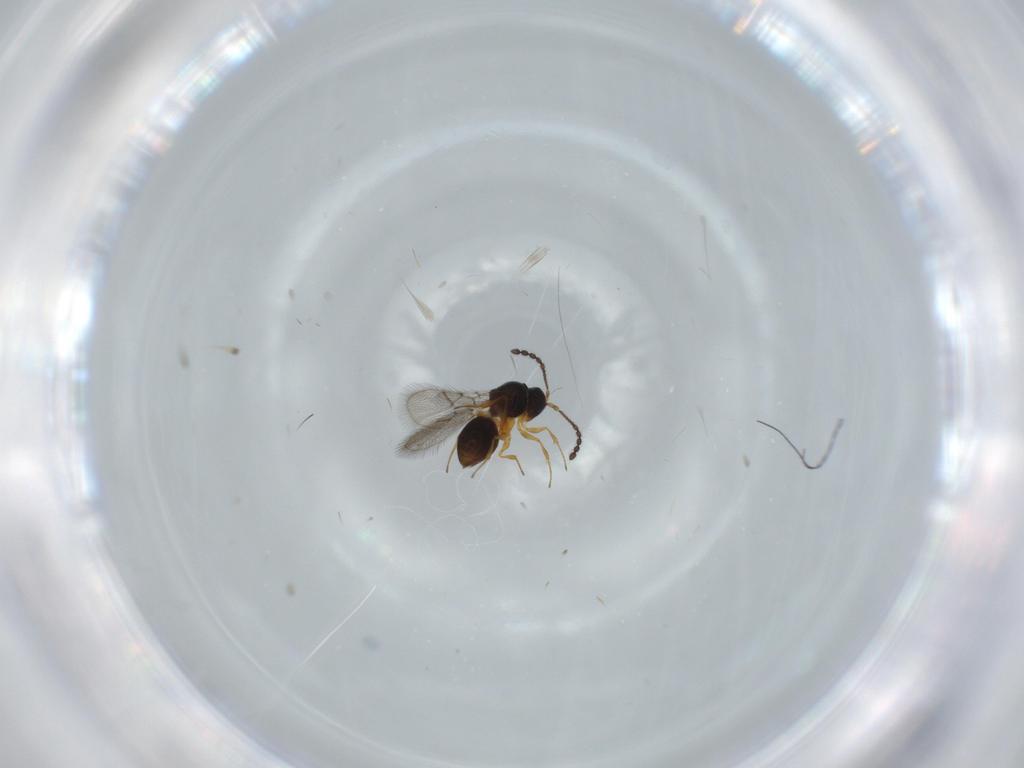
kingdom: Animalia
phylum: Arthropoda
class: Insecta
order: Hymenoptera
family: Figitidae
